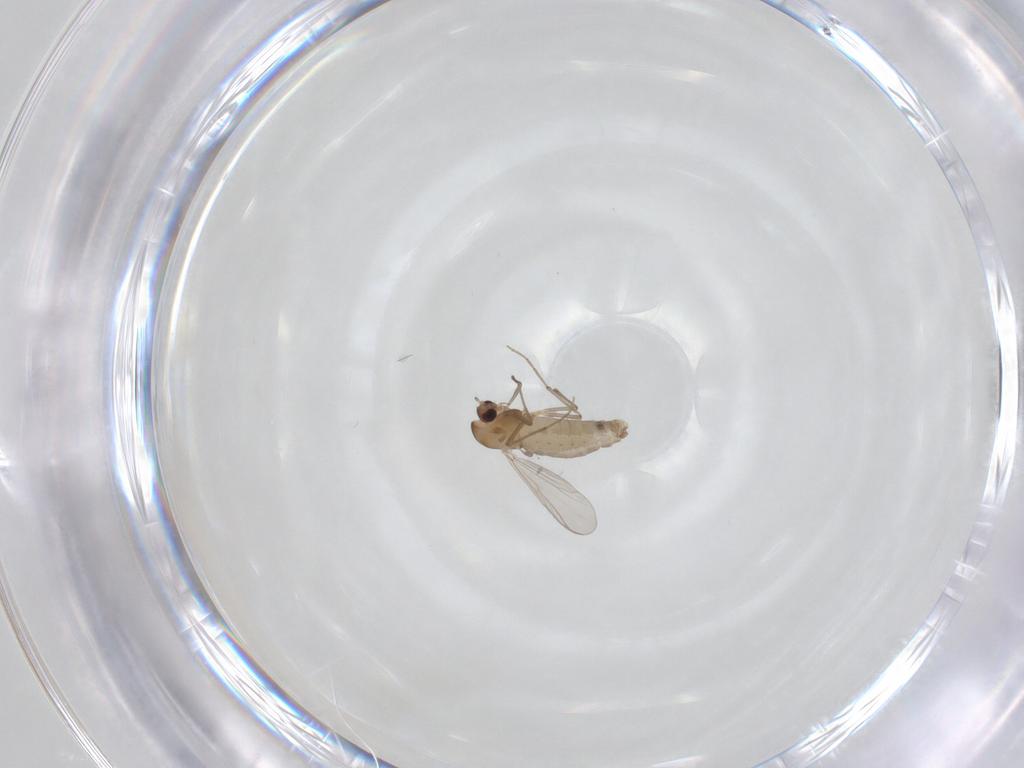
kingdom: Animalia
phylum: Arthropoda
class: Insecta
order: Diptera
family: Chironomidae
